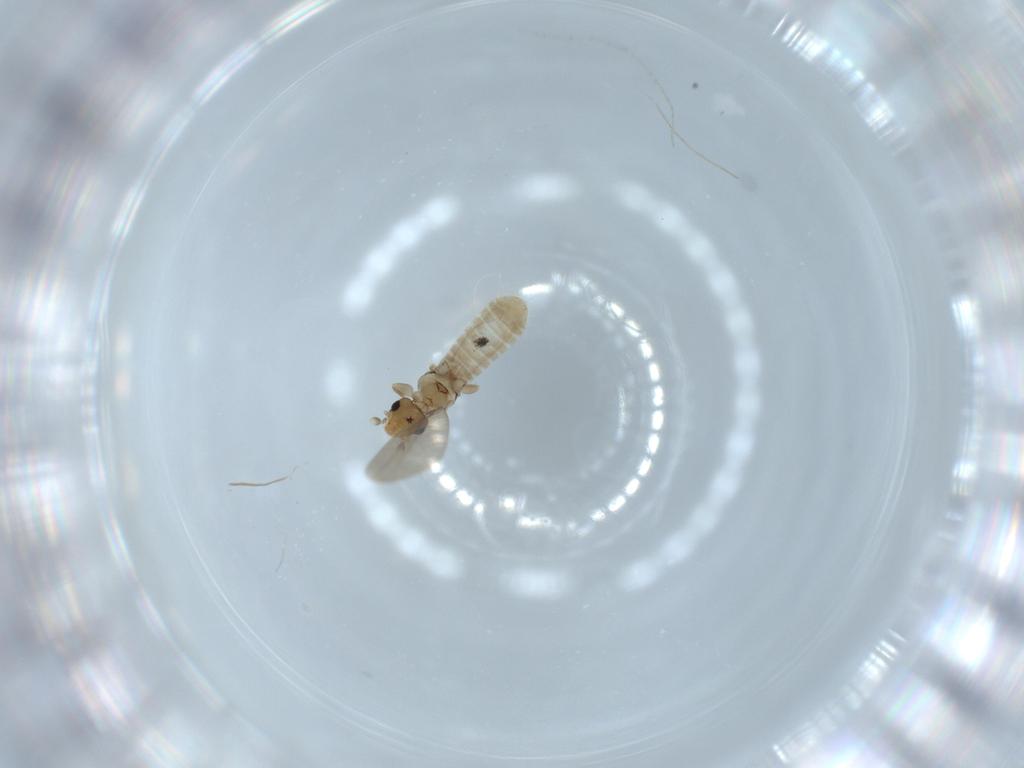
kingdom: Animalia
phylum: Arthropoda
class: Insecta
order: Psocodea
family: Liposcelididae
